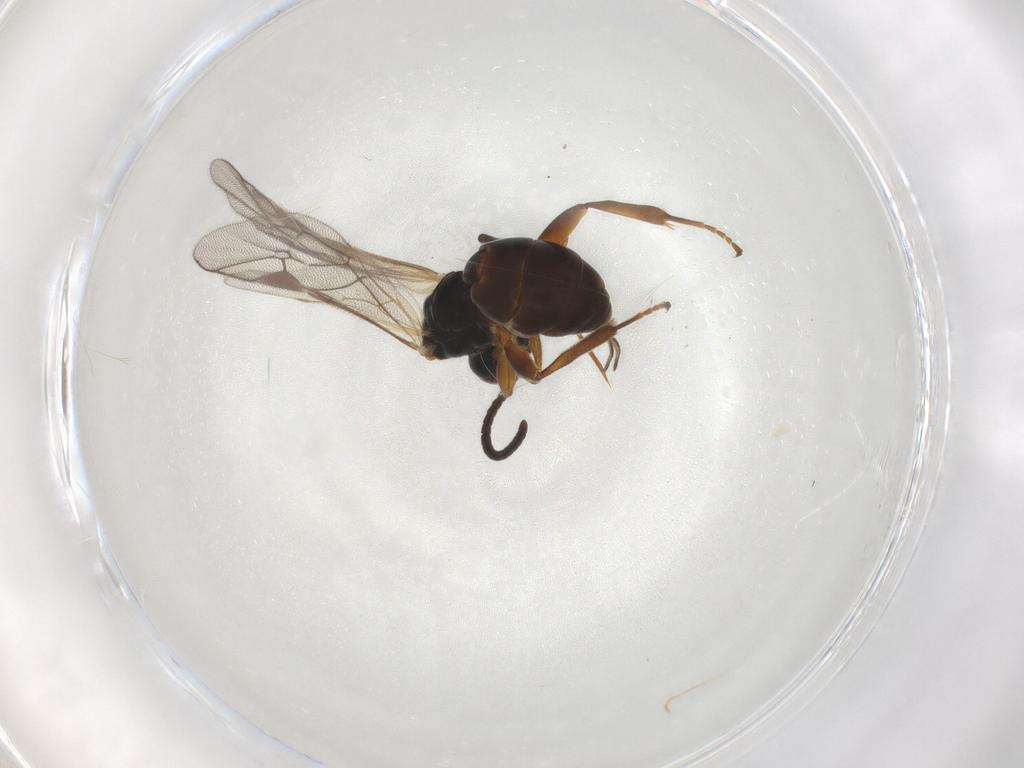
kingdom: Animalia
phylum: Arthropoda
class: Insecta
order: Hymenoptera
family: Ichneumonidae
